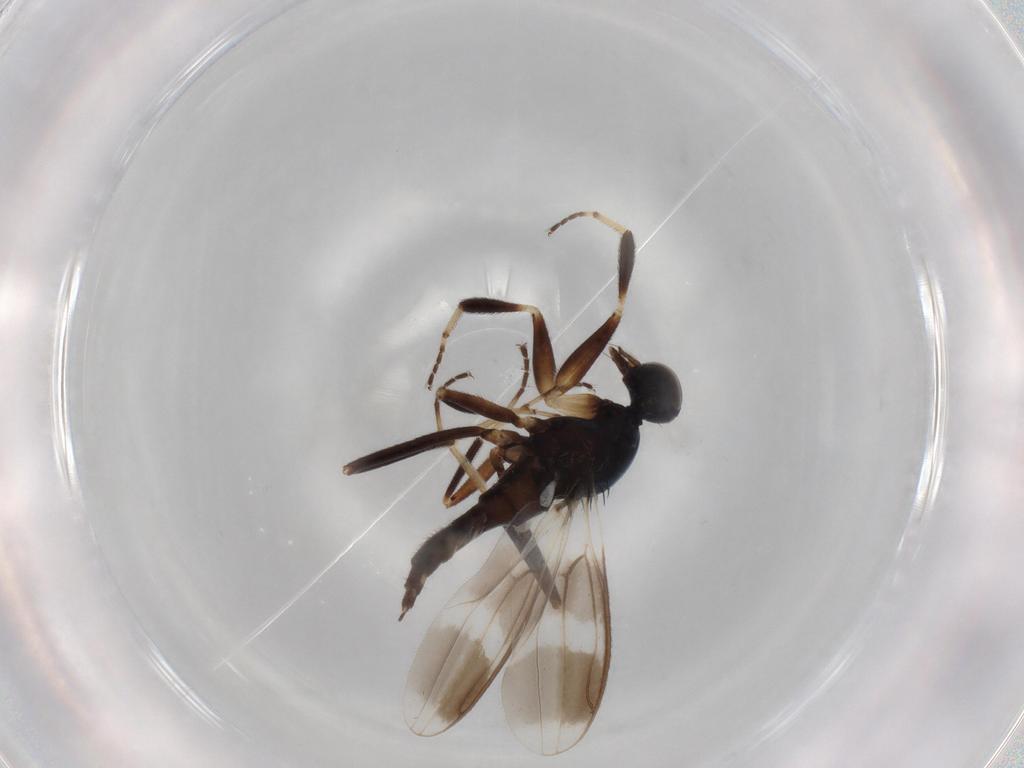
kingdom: Animalia
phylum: Arthropoda
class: Insecta
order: Diptera
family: Hybotidae
